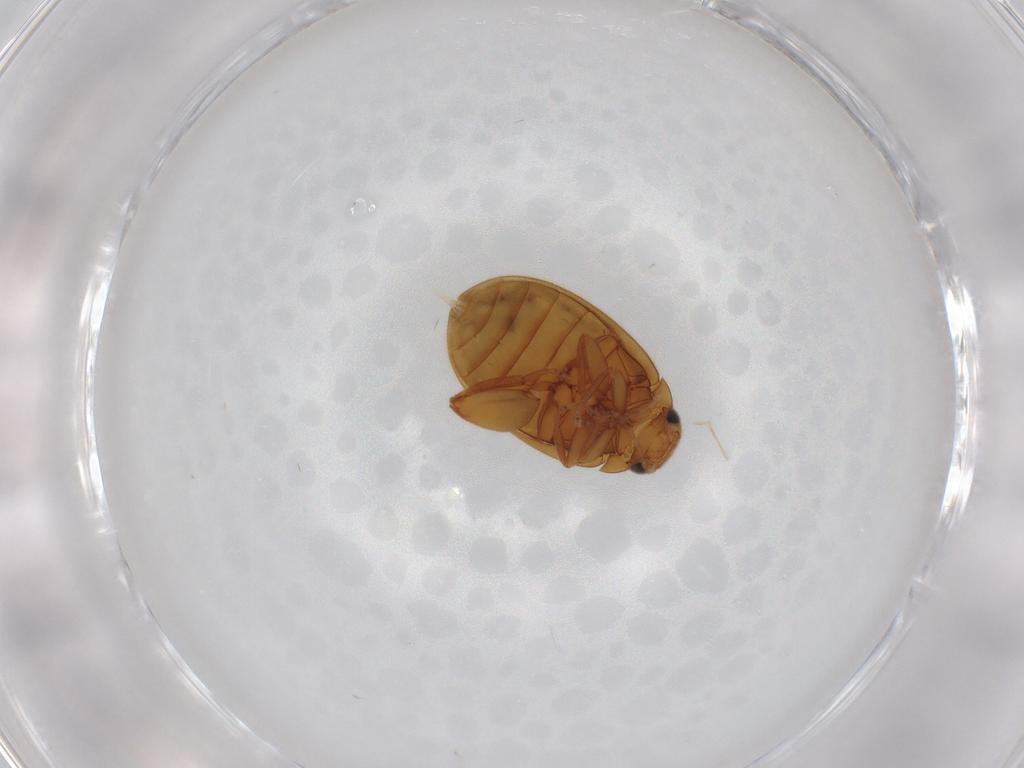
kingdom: Animalia
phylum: Arthropoda
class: Insecta
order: Coleoptera
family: Scirtidae
